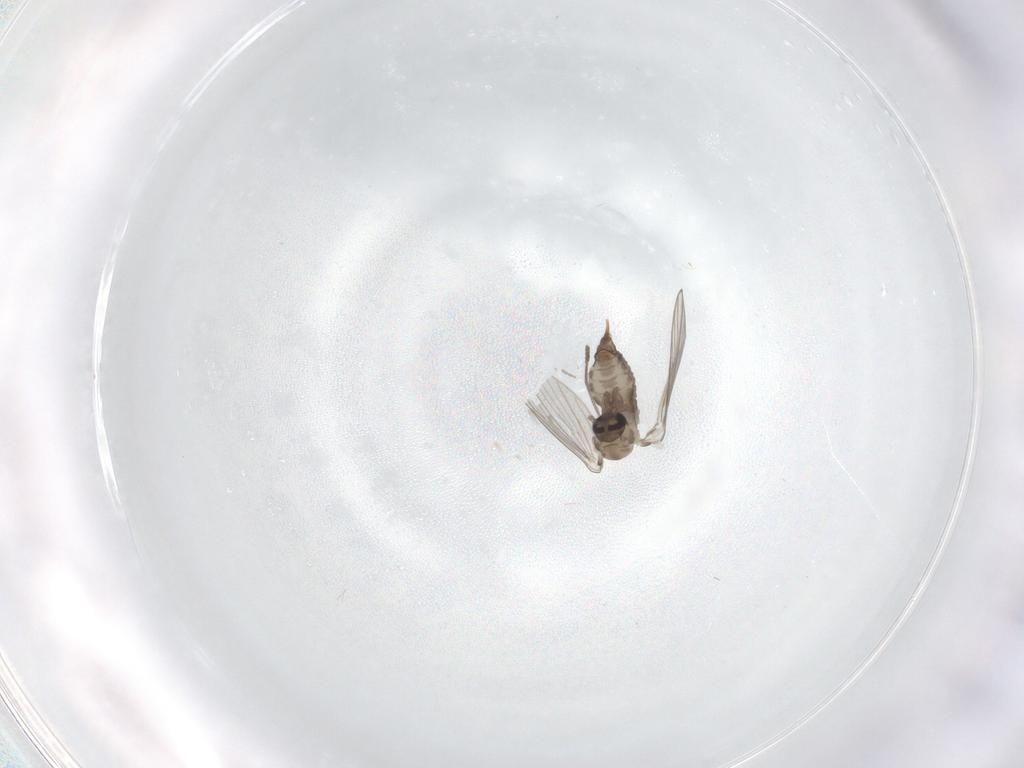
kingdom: Animalia
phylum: Arthropoda
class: Insecta
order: Diptera
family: Psychodidae
